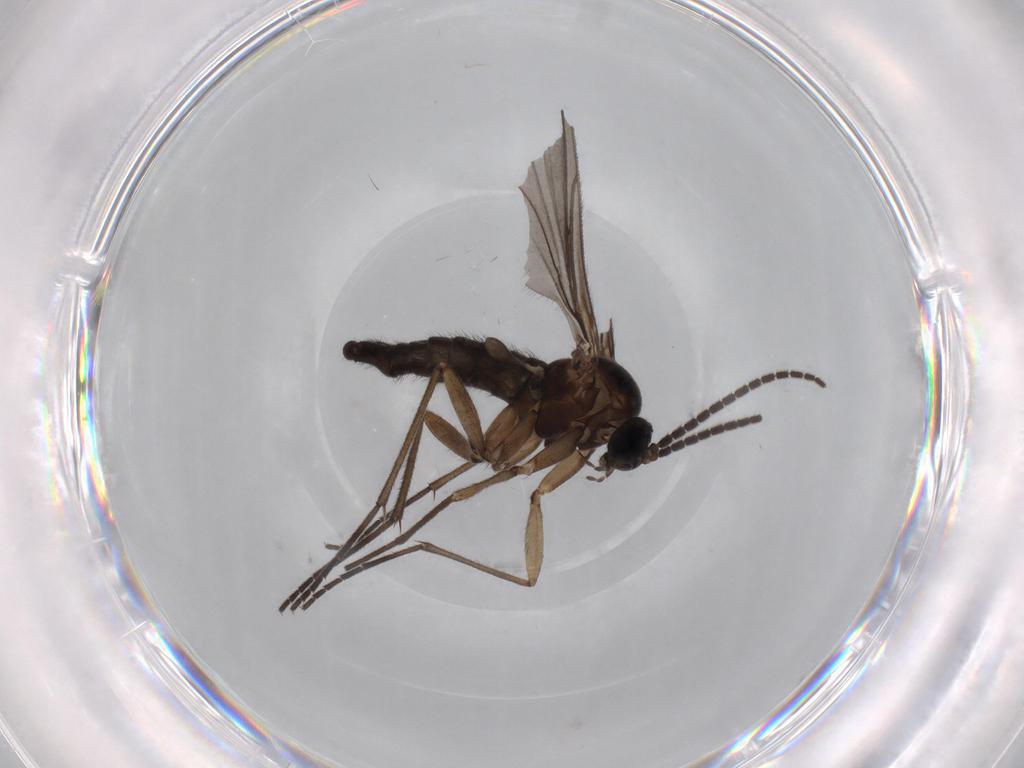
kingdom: Animalia
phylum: Arthropoda
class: Insecta
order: Diptera
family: Sciaridae
